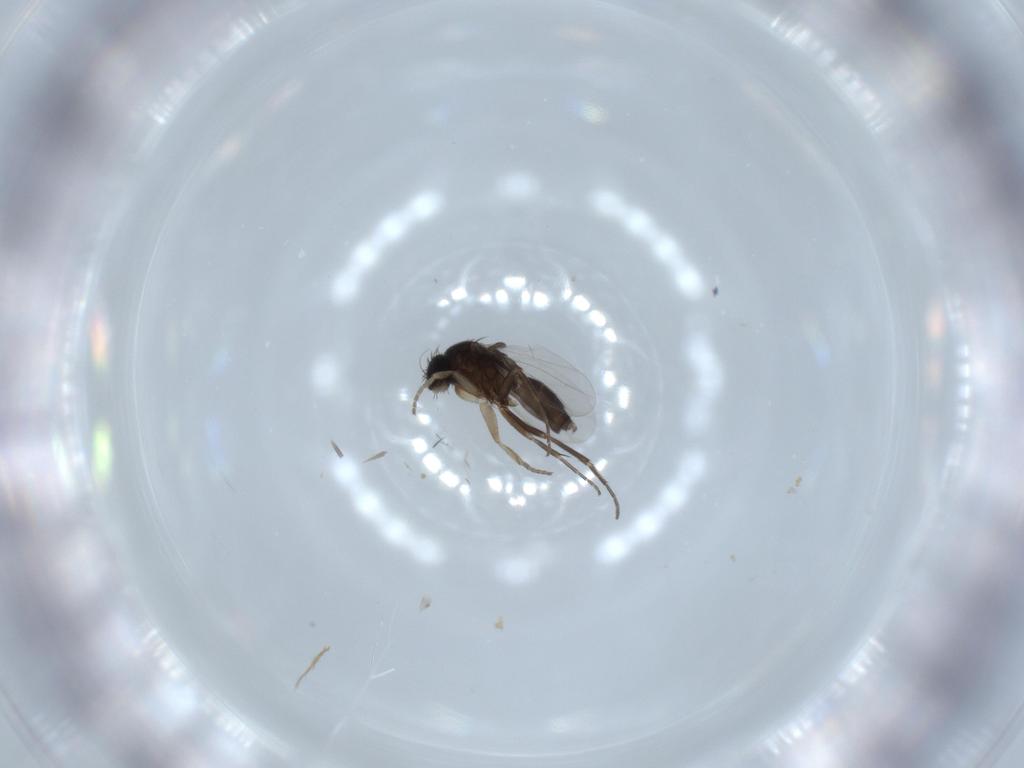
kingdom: Animalia
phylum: Arthropoda
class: Insecta
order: Diptera
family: Phoridae
